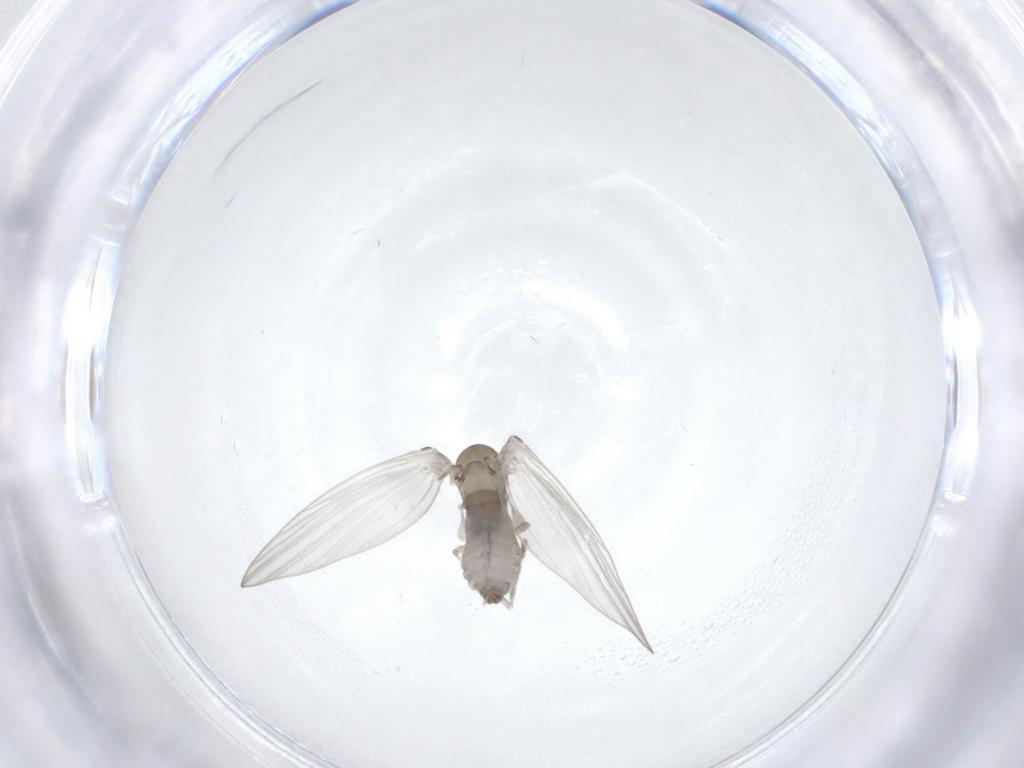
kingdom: Animalia
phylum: Arthropoda
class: Insecta
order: Diptera
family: Psychodidae
